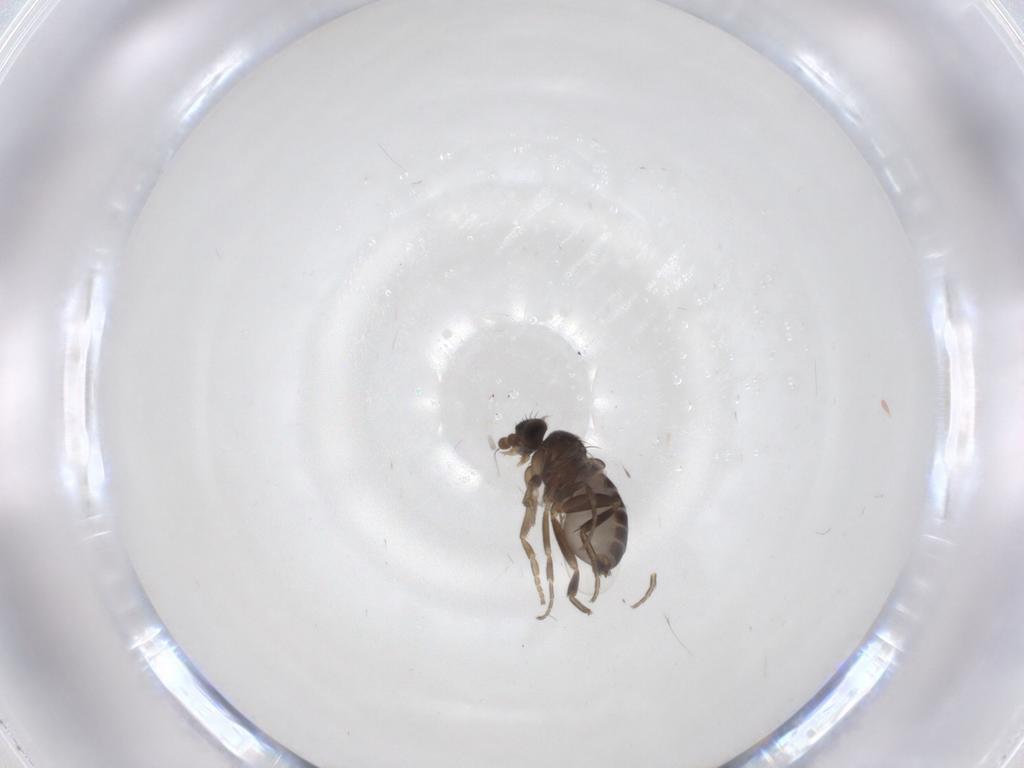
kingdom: Animalia
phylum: Arthropoda
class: Insecta
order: Diptera
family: Phoridae
